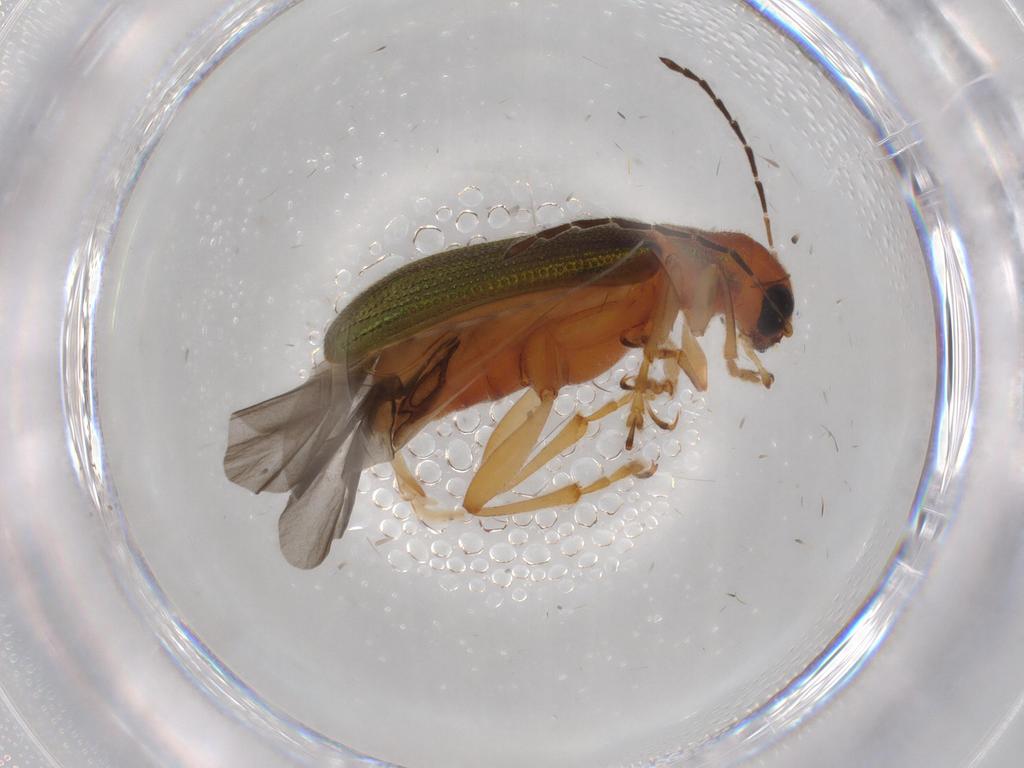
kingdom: Animalia
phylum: Arthropoda
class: Insecta
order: Coleoptera
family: Chrysomelidae
